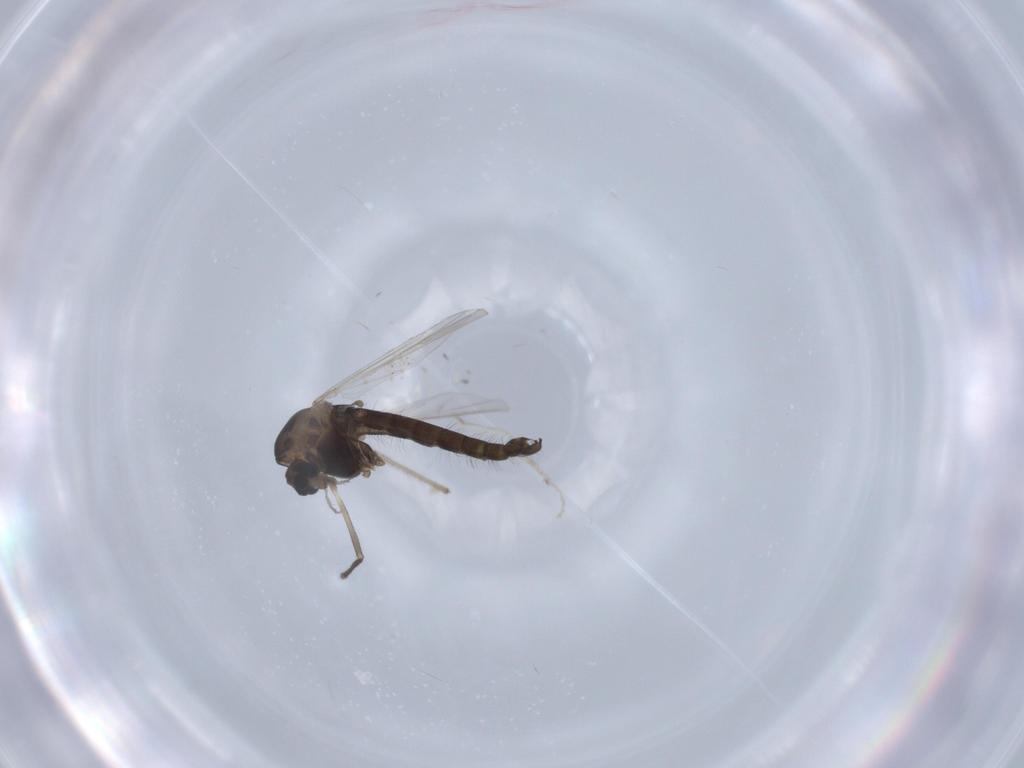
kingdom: Animalia
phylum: Arthropoda
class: Insecta
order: Diptera
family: Chironomidae
